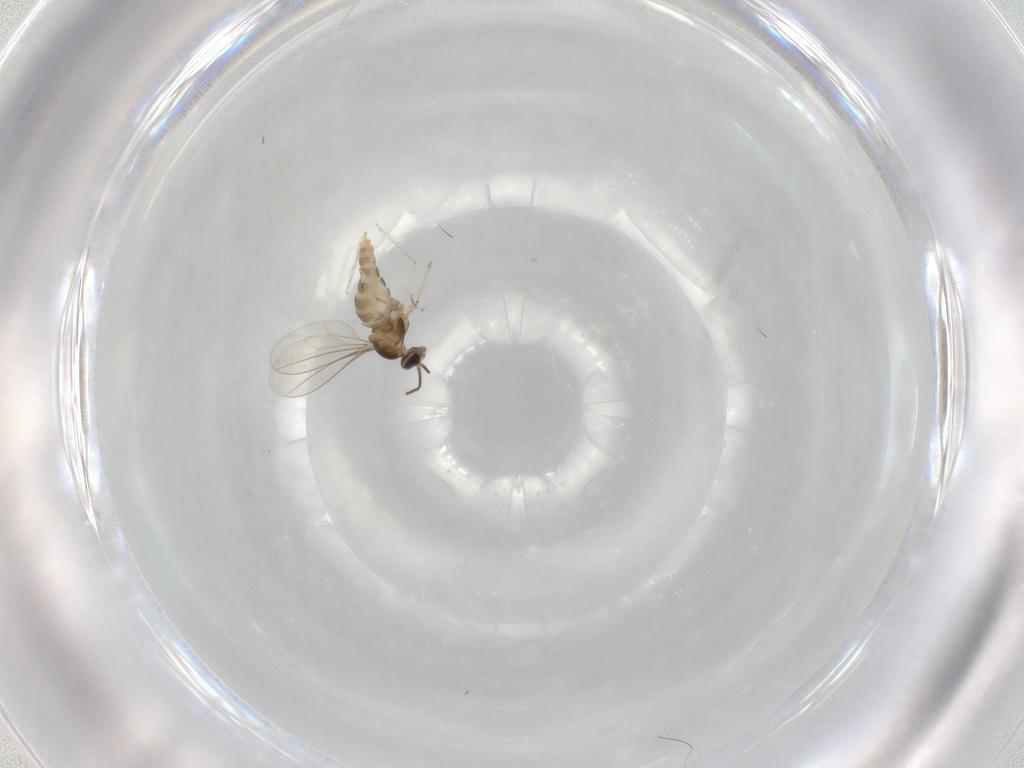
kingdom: Animalia
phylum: Arthropoda
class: Insecta
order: Diptera
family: Cecidomyiidae
